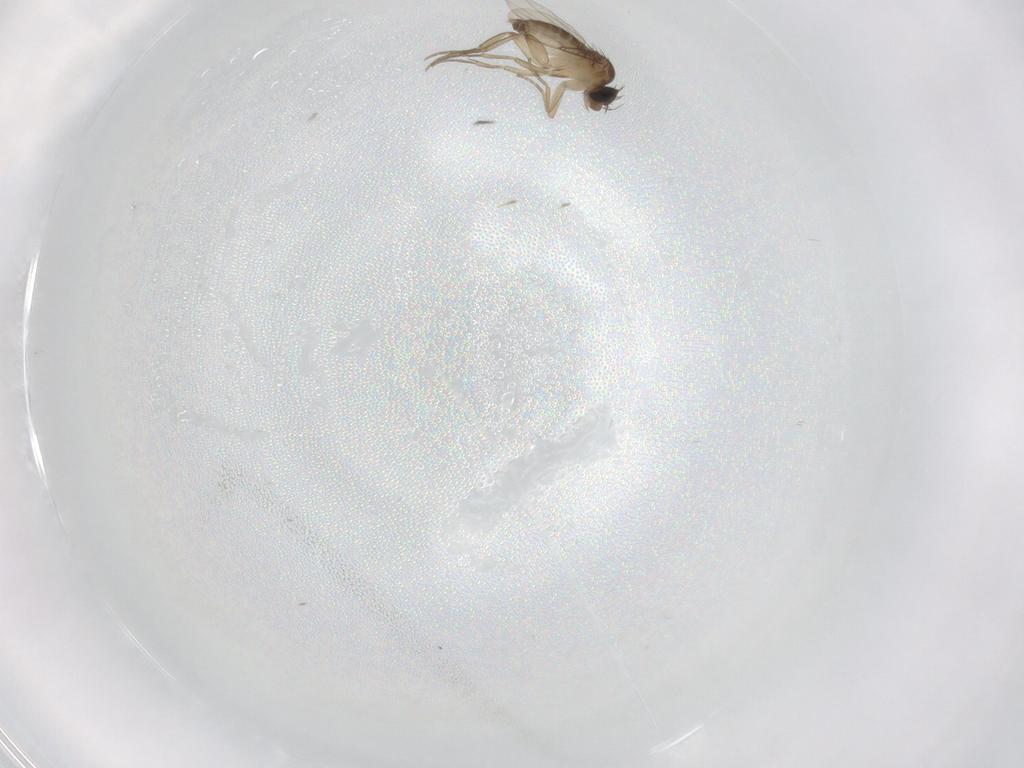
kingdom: Animalia
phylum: Arthropoda
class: Insecta
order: Diptera
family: Phoridae
